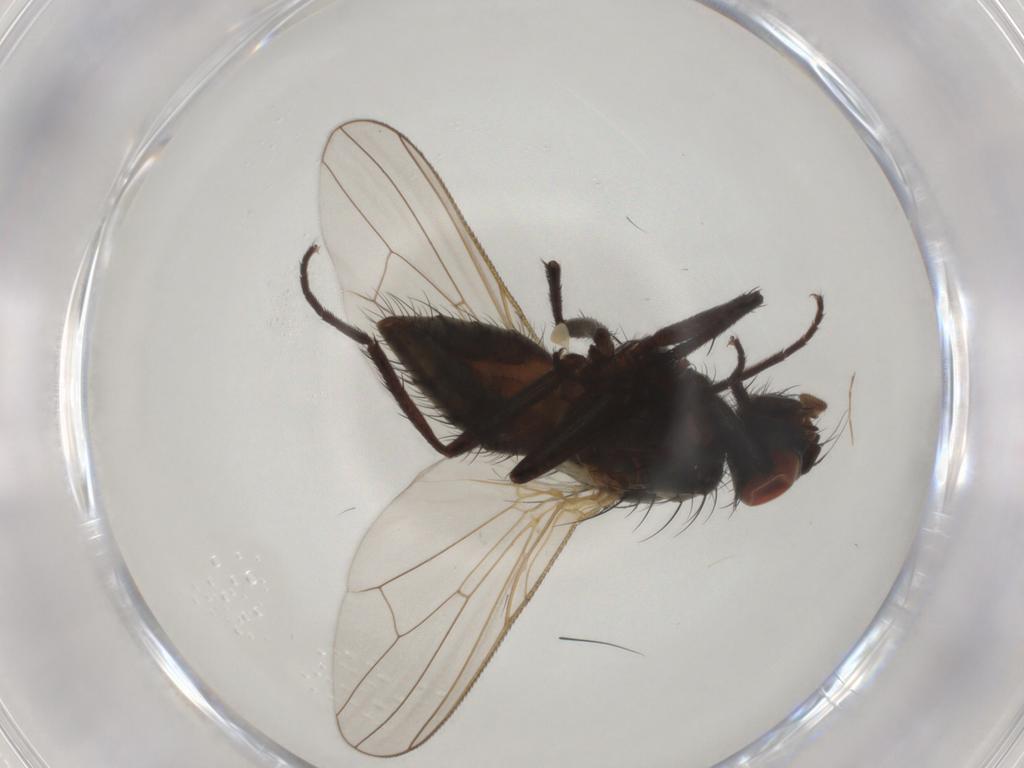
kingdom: Animalia
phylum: Arthropoda
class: Insecta
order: Diptera
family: Anthomyiidae
